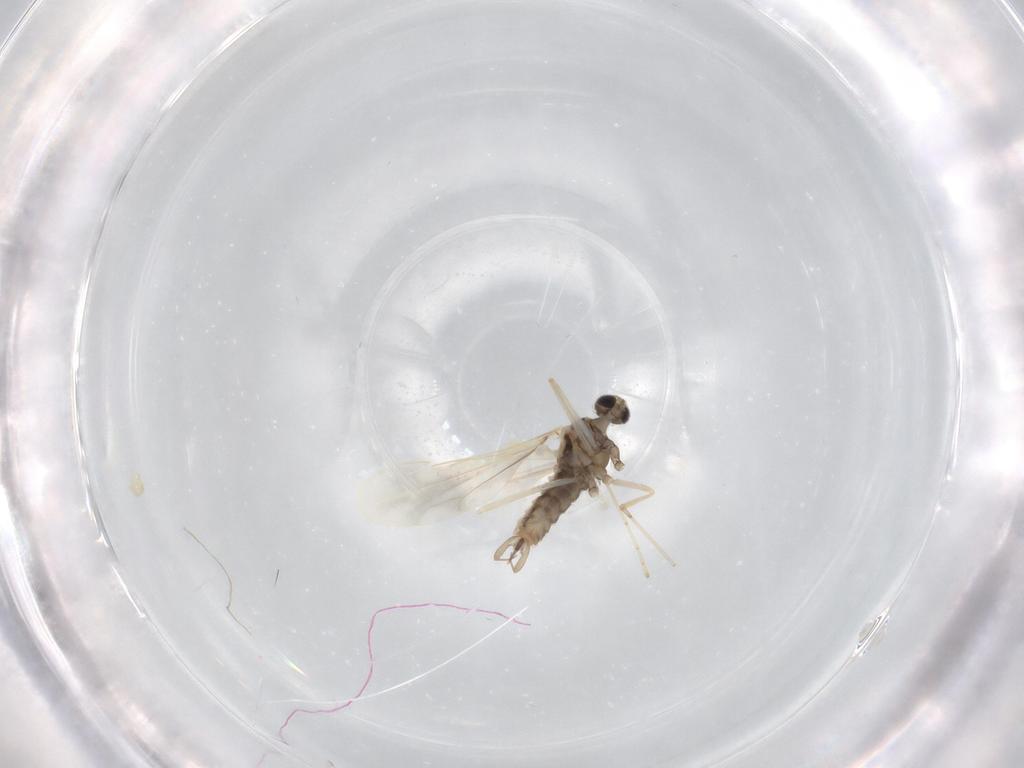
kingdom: Animalia
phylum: Arthropoda
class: Insecta
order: Diptera
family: Cecidomyiidae
